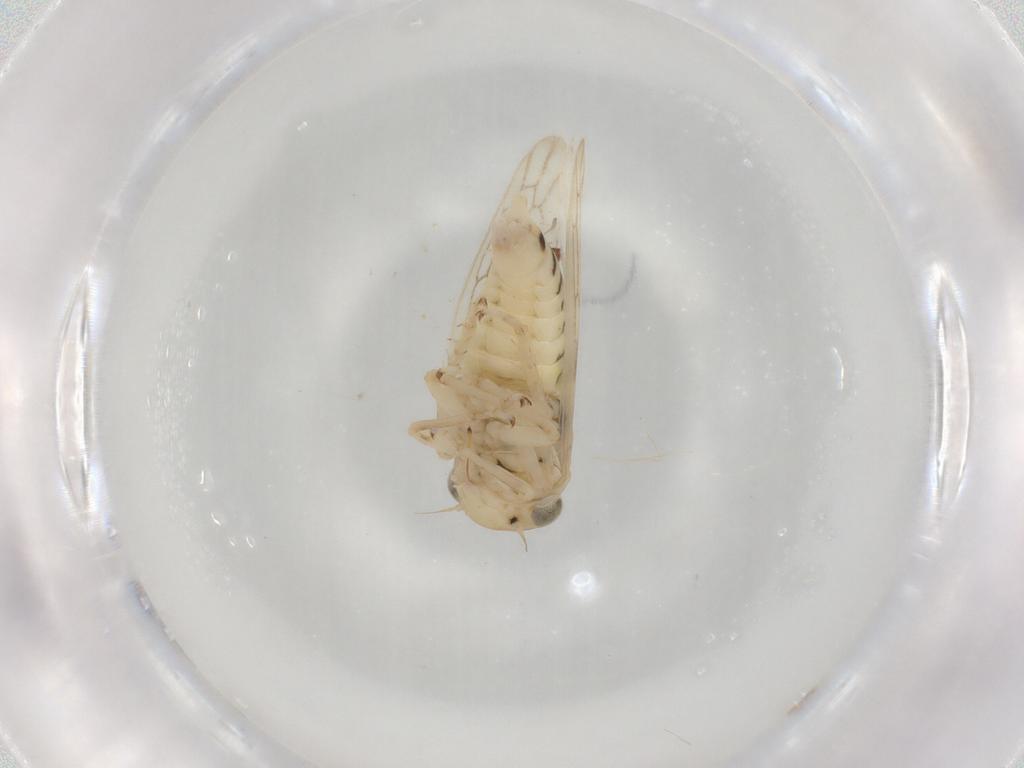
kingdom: Animalia
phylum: Arthropoda
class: Insecta
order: Hemiptera
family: Cicadellidae
